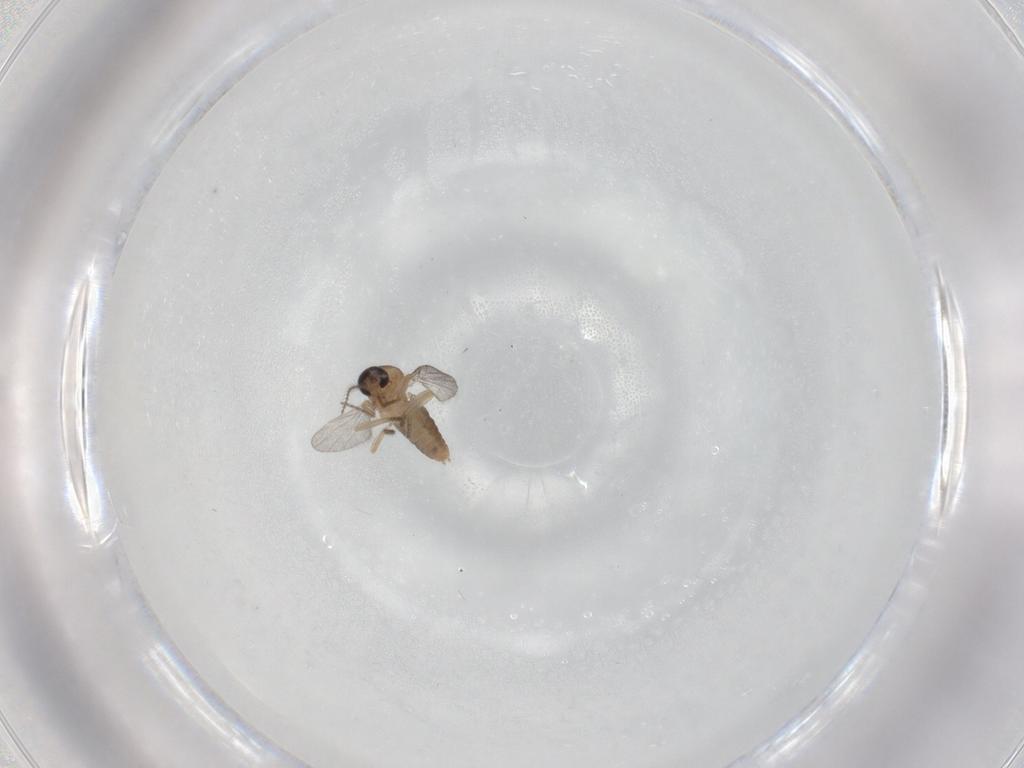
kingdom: Animalia
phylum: Arthropoda
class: Insecta
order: Diptera
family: Ceratopogonidae
